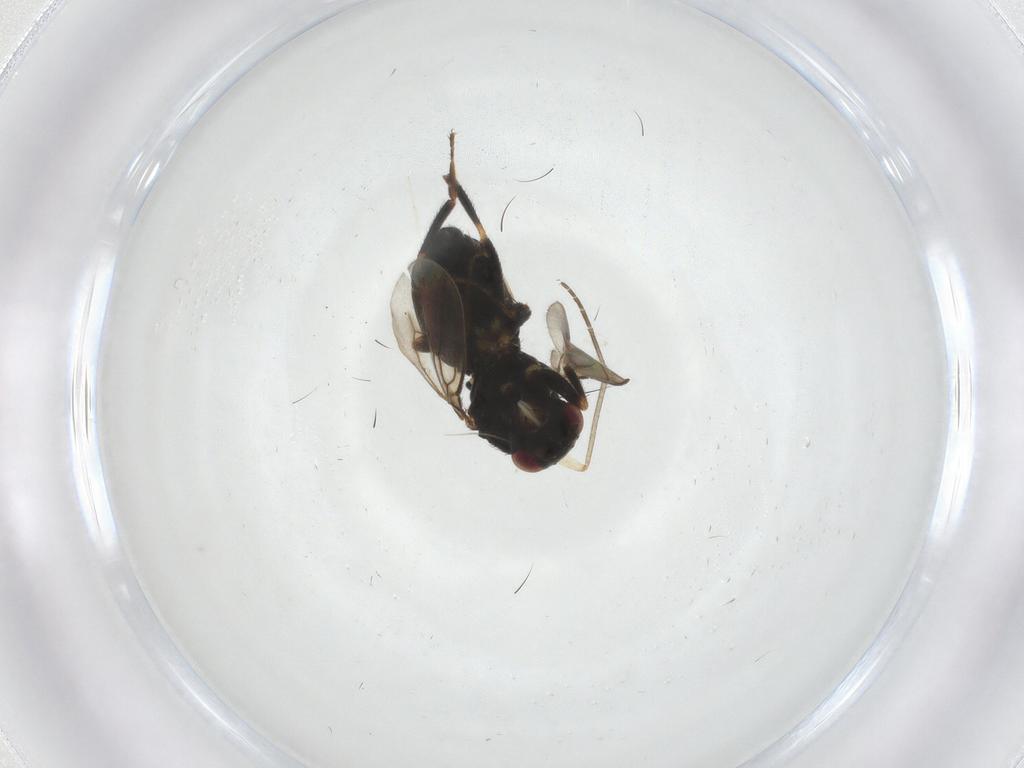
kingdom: Animalia
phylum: Arthropoda
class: Insecta
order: Diptera
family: Sphaeroceridae
